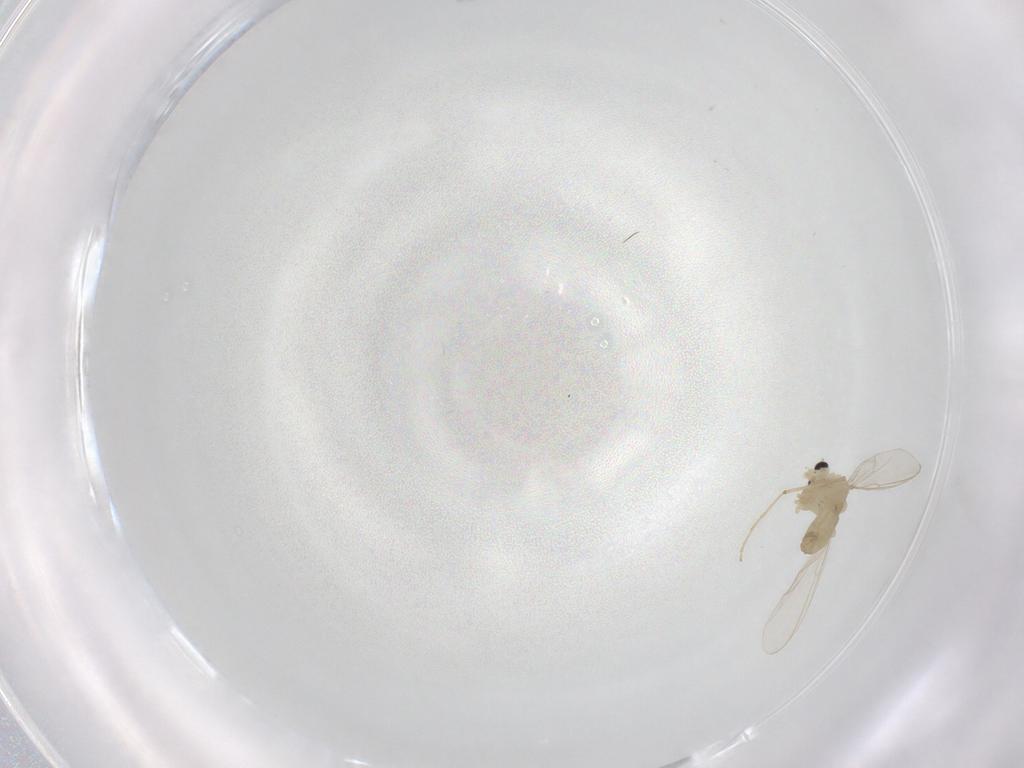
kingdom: Animalia
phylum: Arthropoda
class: Insecta
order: Diptera
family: Chironomidae
